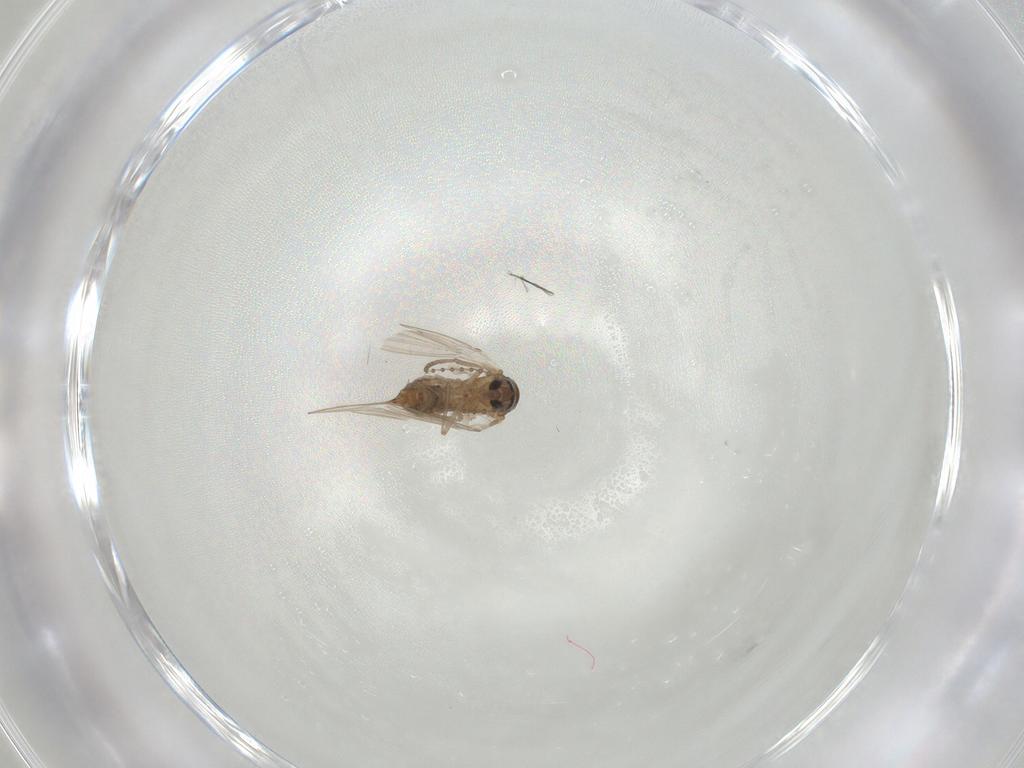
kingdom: Animalia
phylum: Arthropoda
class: Insecta
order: Diptera
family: Psychodidae
